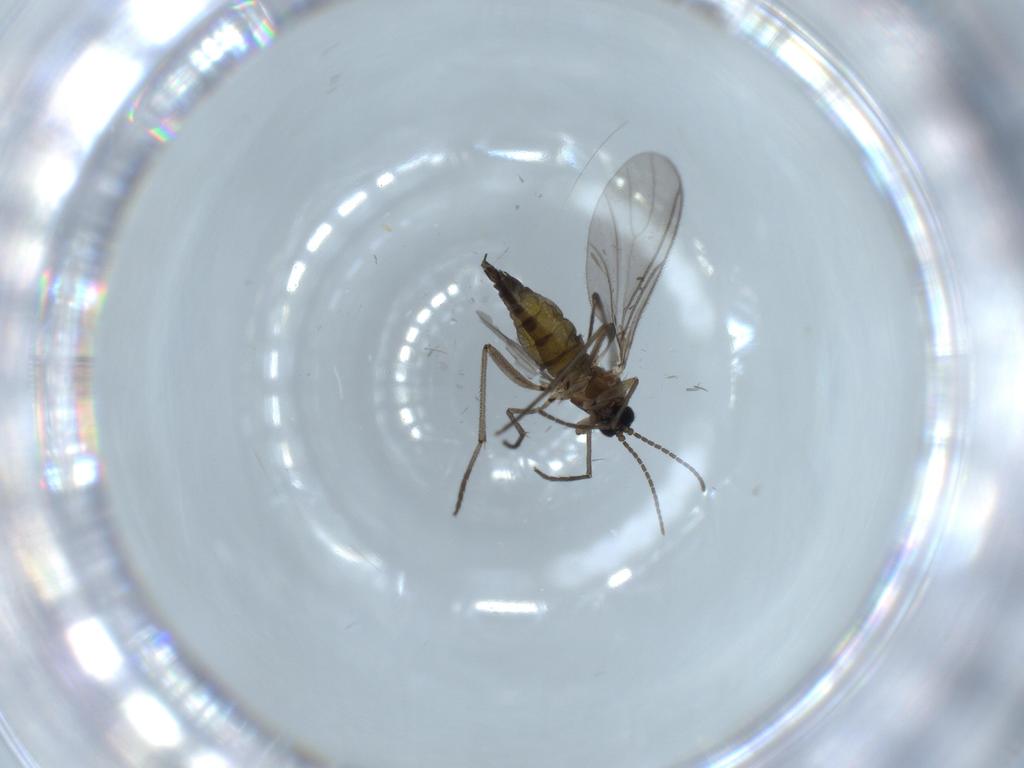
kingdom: Animalia
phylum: Arthropoda
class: Insecta
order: Diptera
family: Sciaridae
